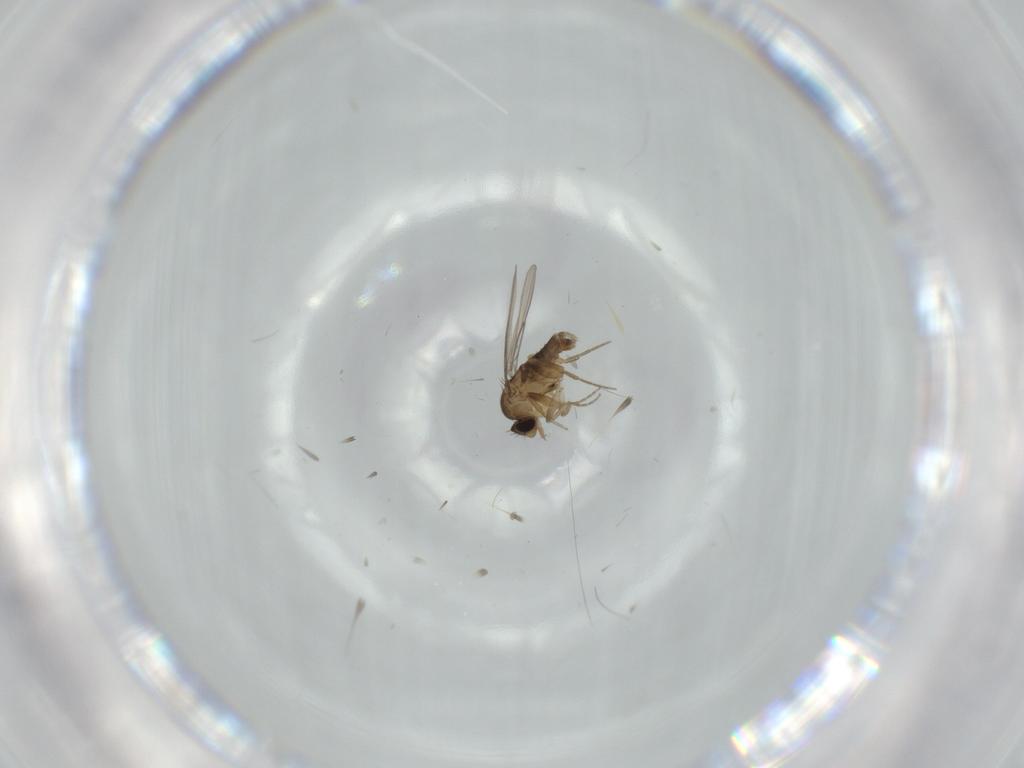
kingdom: Animalia
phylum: Arthropoda
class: Insecta
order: Diptera
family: Phoridae
